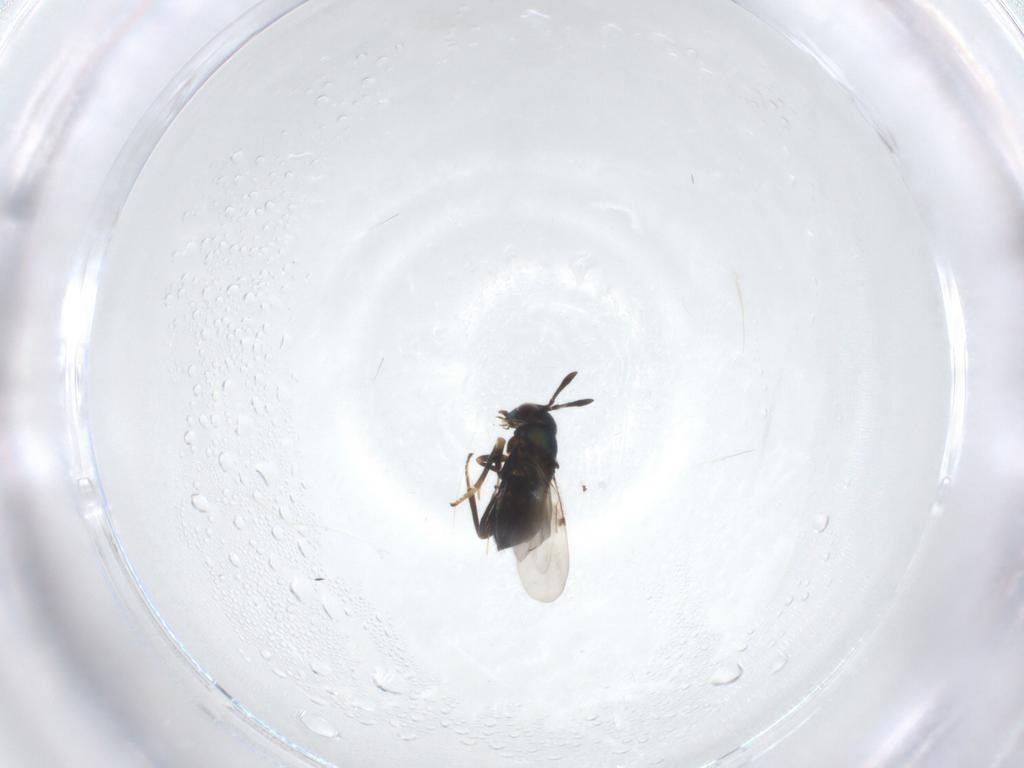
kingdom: Animalia
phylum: Arthropoda
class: Insecta
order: Hymenoptera
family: Encyrtidae
